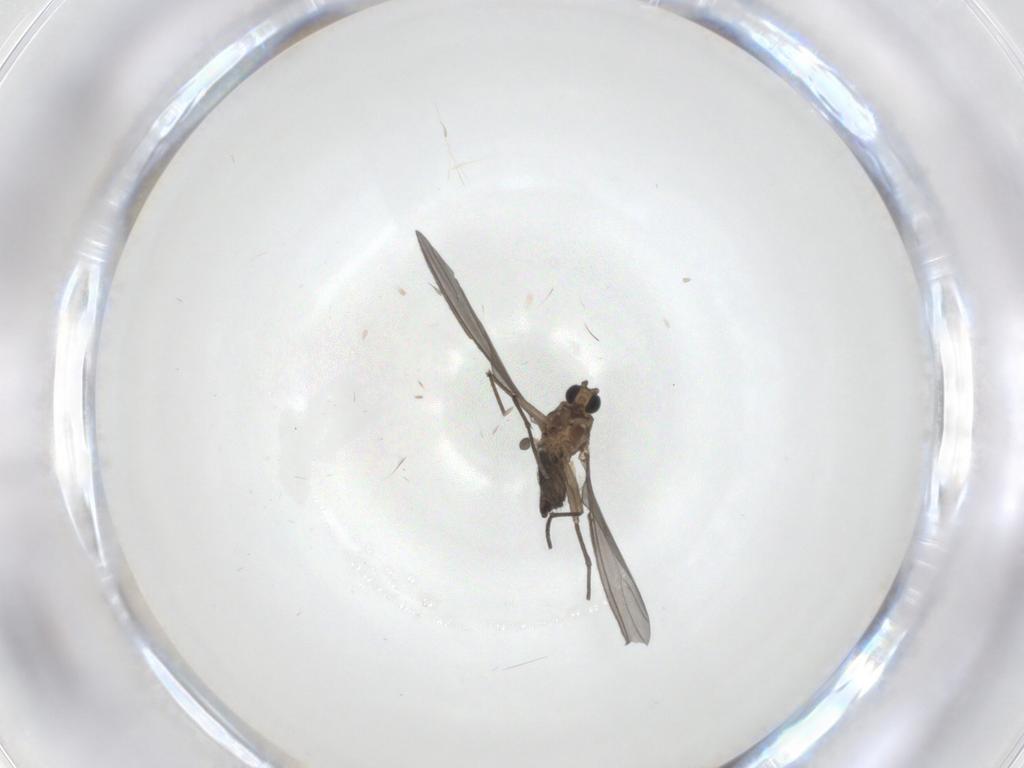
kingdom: Animalia
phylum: Arthropoda
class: Insecta
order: Diptera
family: Sciaridae
